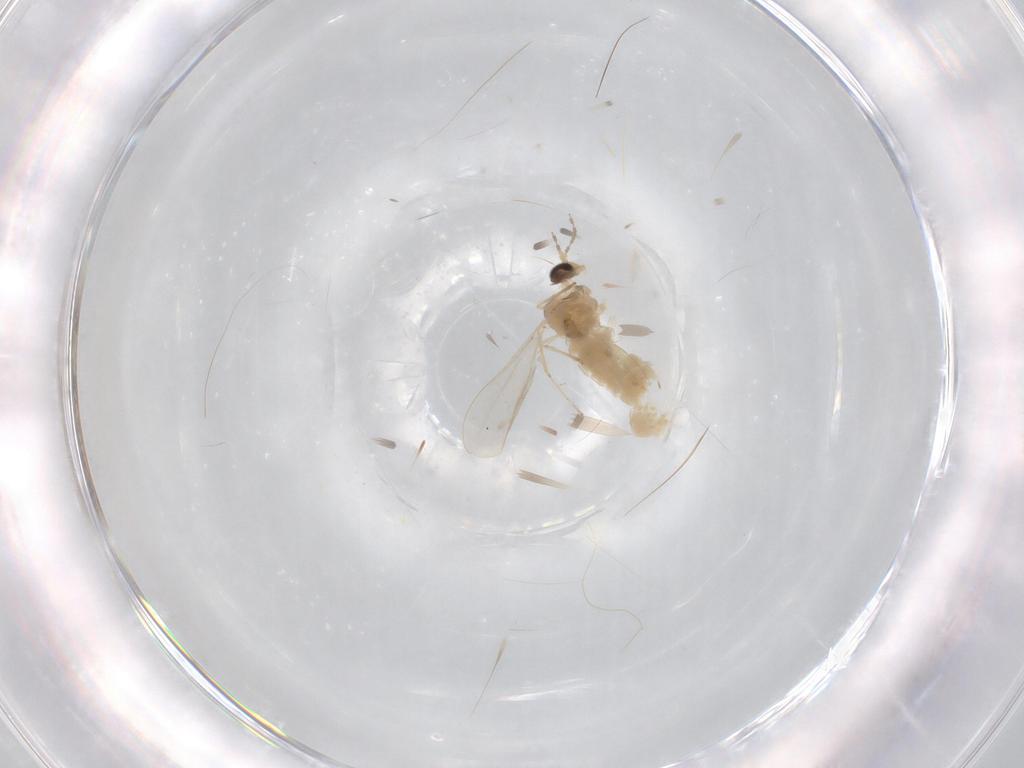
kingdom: Animalia
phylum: Arthropoda
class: Insecta
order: Diptera
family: Cecidomyiidae
